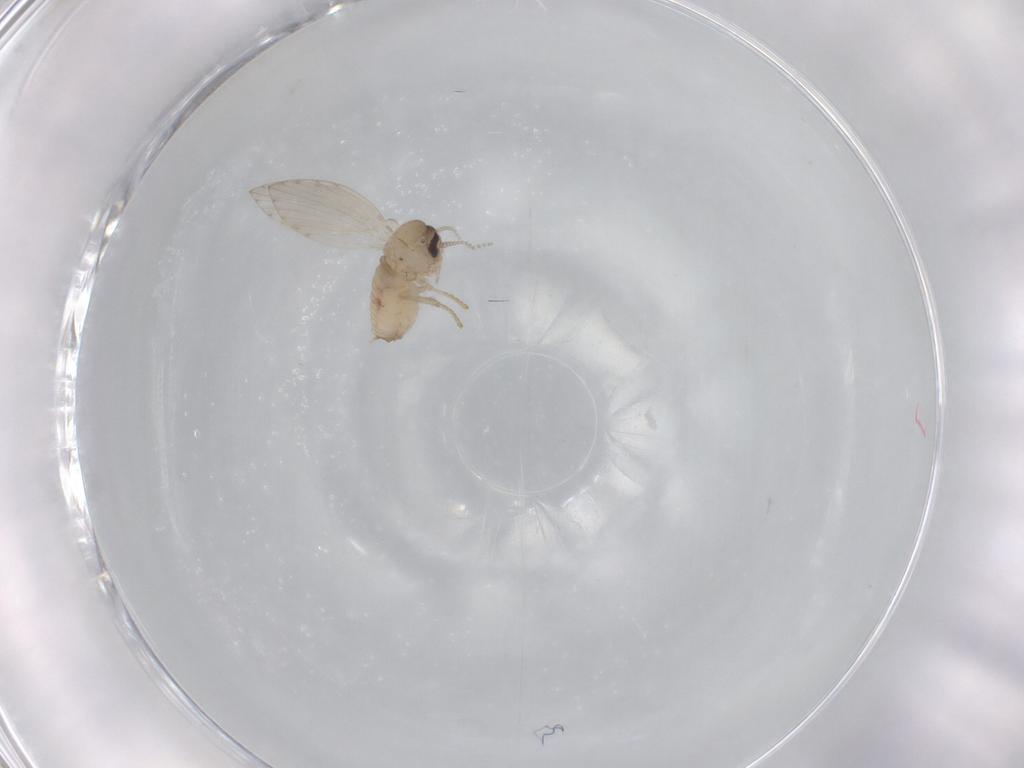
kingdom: Animalia
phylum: Arthropoda
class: Insecta
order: Diptera
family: Psychodidae
